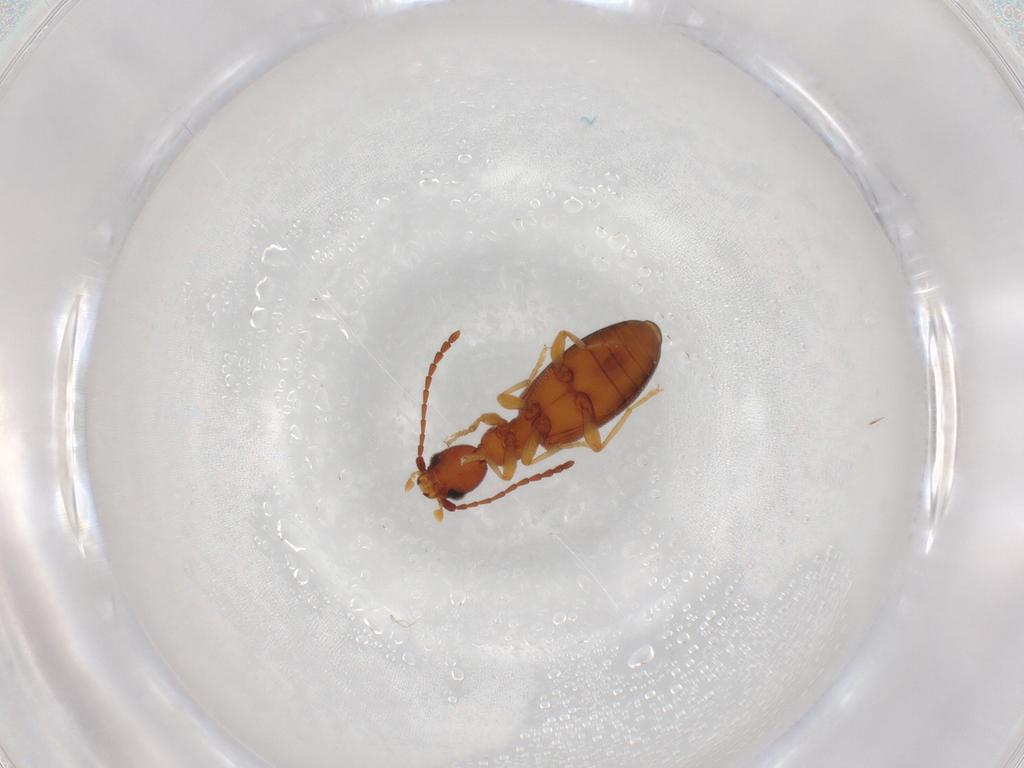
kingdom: Animalia
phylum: Arthropoda
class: Insecta
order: Coleoptera
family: Anthicidae
